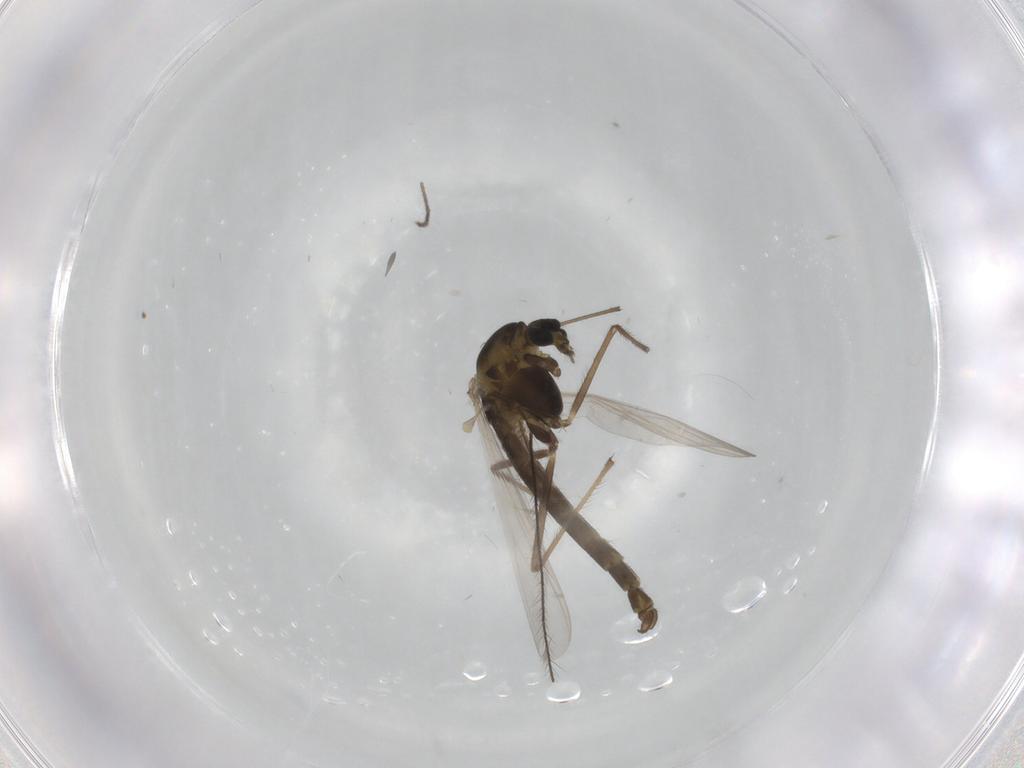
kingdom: Animalia
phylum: Arthropoda
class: Insecta
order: Diptera
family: Chironomidae
